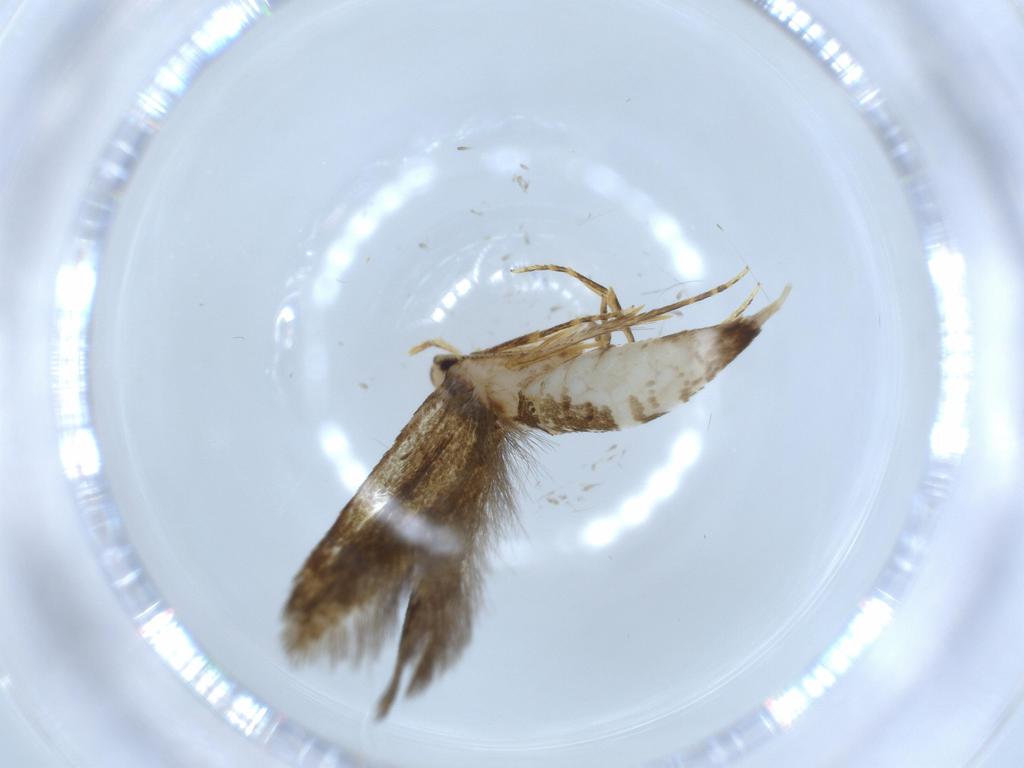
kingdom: Animalia
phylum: Arthropoda
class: Insecta
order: Lepidoptera
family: Tineidae
